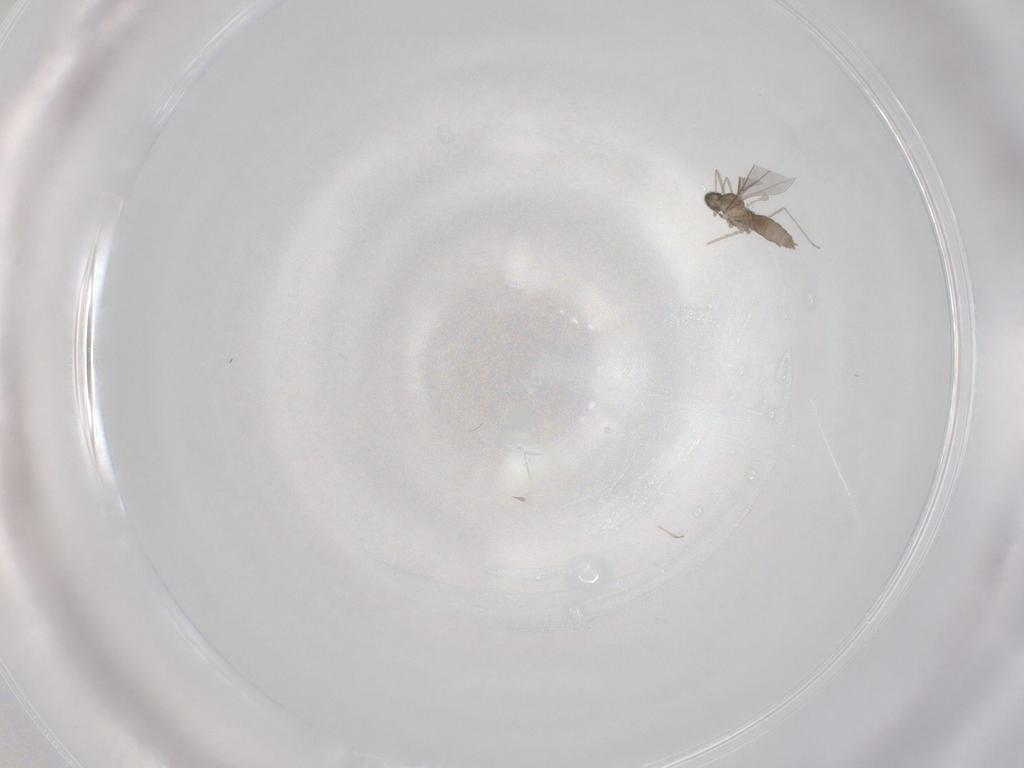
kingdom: Animalia
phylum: Arthropoda
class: Insecta
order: Diptera
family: Cecidomyiidae
